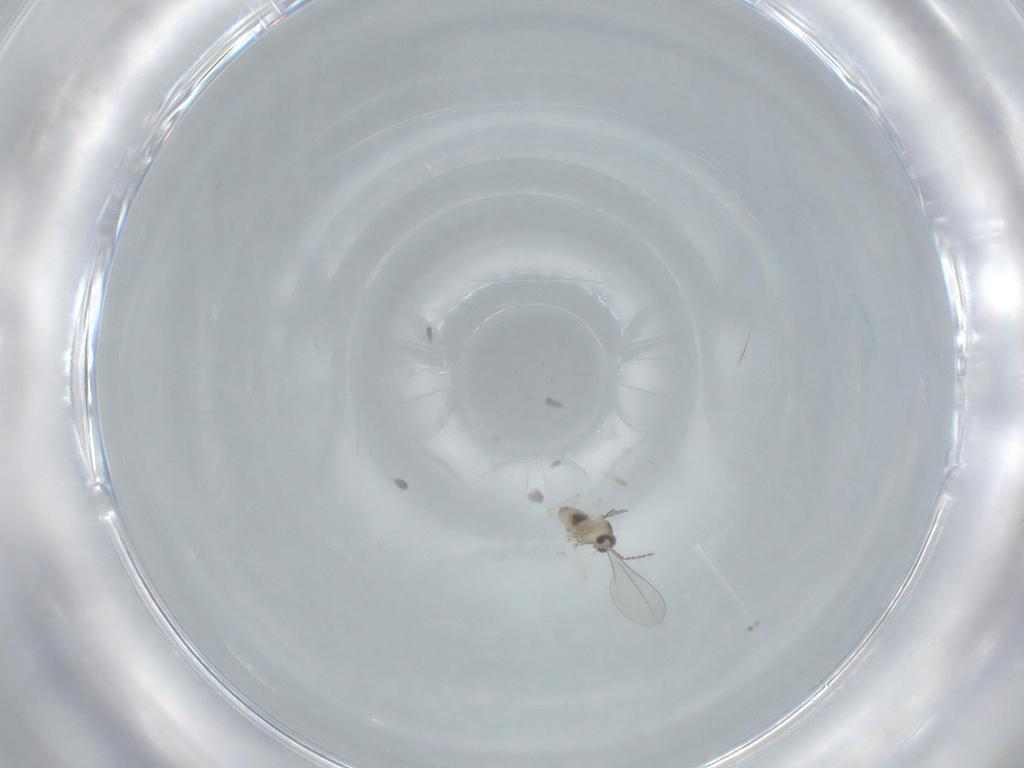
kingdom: Animalia
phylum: Arthropoda
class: Insecta
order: Diptera
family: Cecidomyiidae
